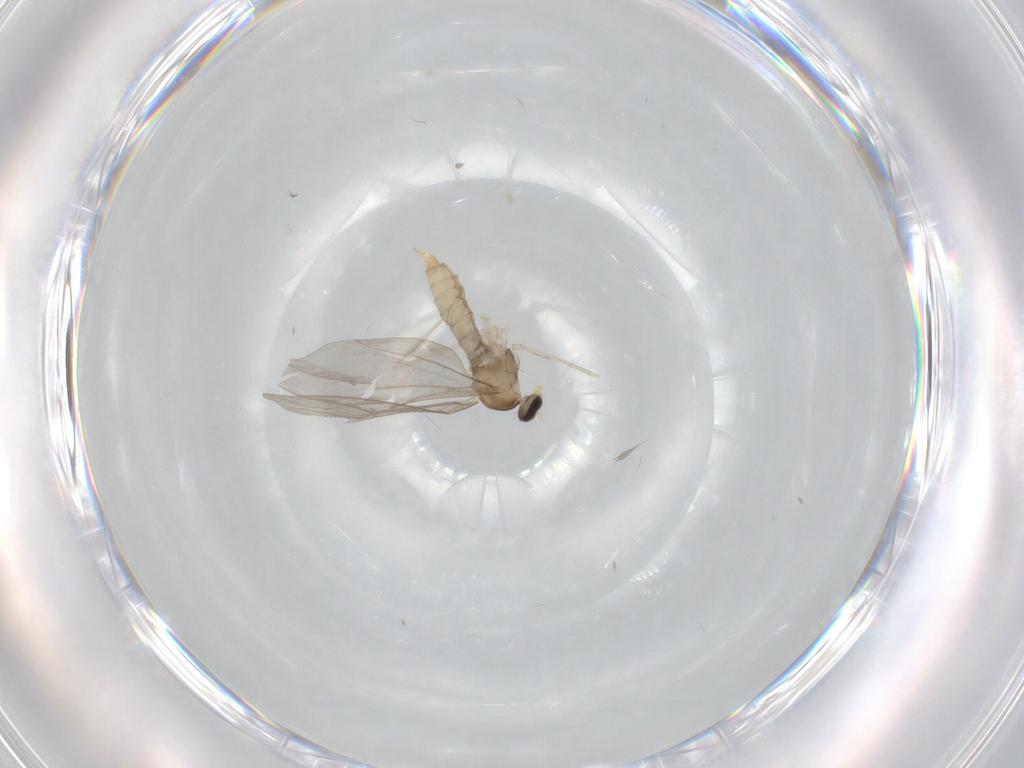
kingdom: Animalia
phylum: Arthropoda
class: Insecta
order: Diptera
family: Cecidomyiidae
